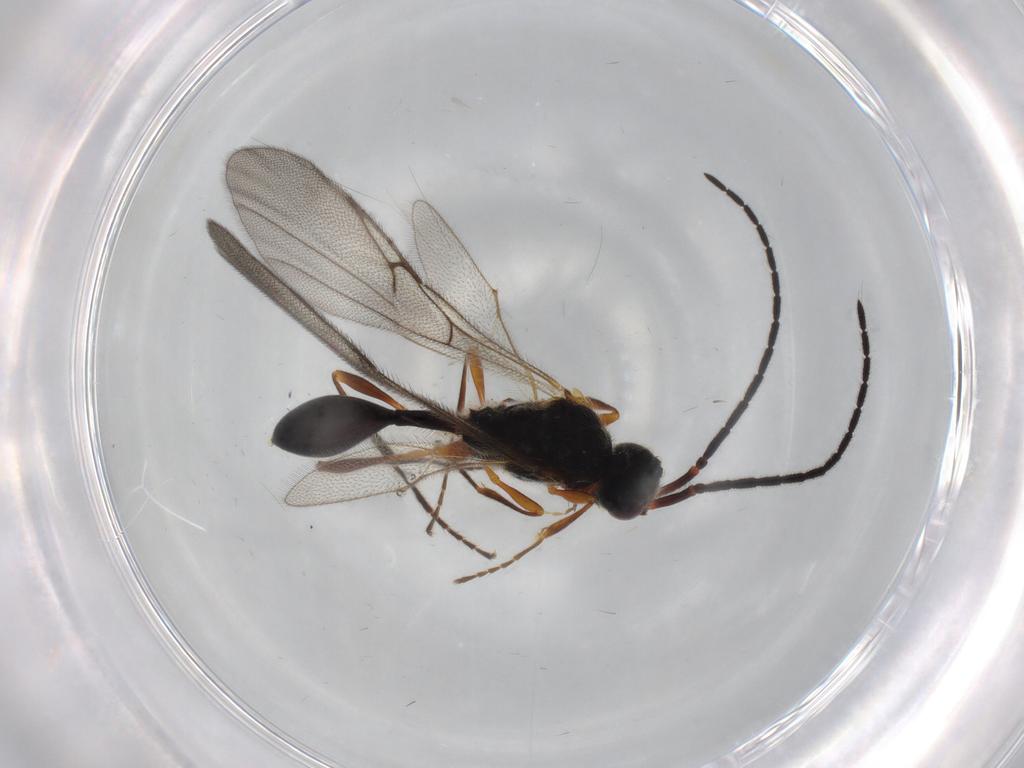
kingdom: Animalia
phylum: Arthropoda
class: Insecta
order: Hymenoptera
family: Diapriidae
